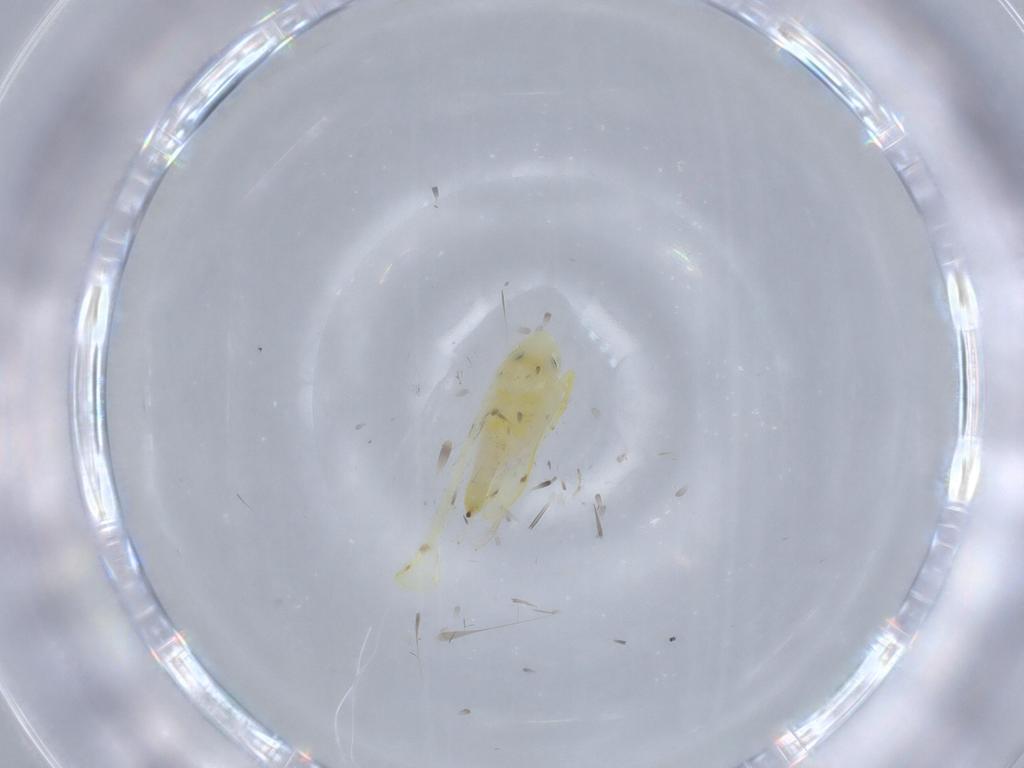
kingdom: Animalia
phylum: Arthropoda
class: Insecta
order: Hemiptera
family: Cicadellidae
